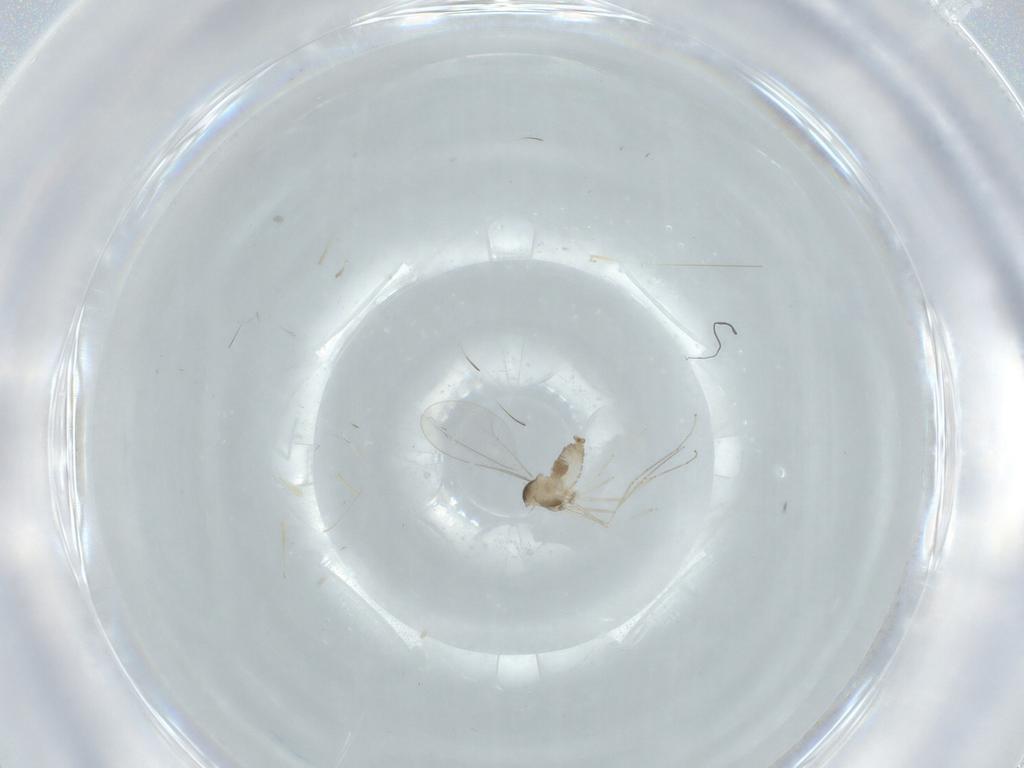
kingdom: Animalia
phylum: Arthropoda
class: Insecta
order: Diptera
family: Cecidomyiidae
